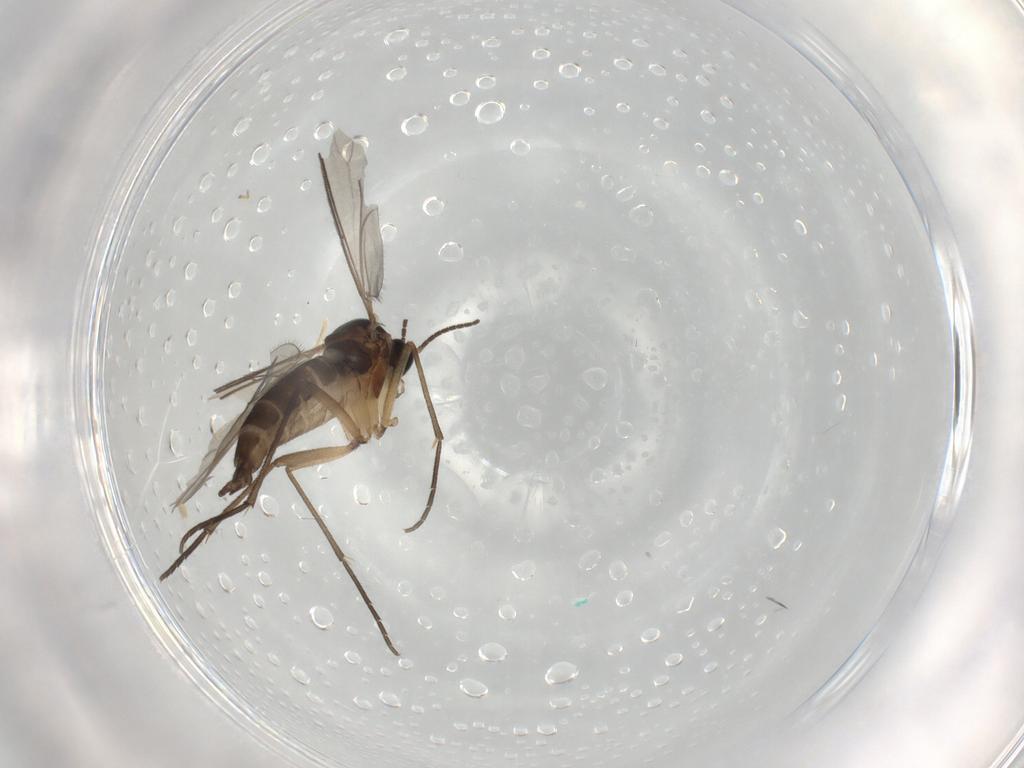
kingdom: Animalia
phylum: Arthropoda
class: Insecta
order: Diptera
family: Sciaridae
